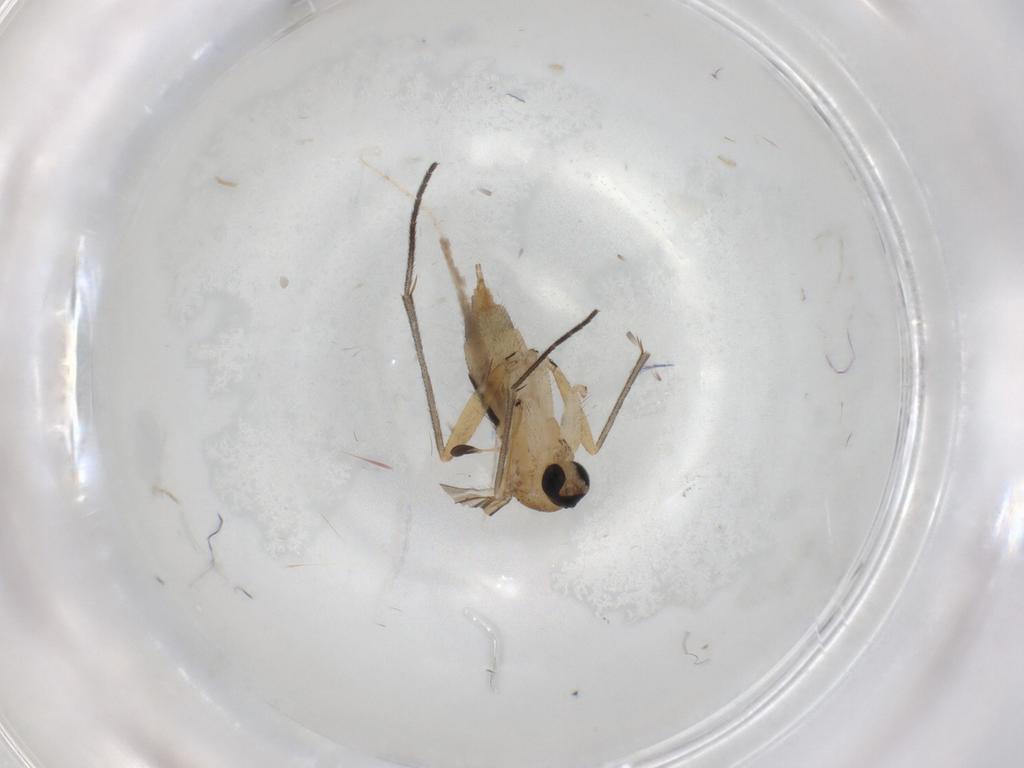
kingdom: Animalia
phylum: Arthropoda
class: Insecta
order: Diptera
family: Sciaridae
